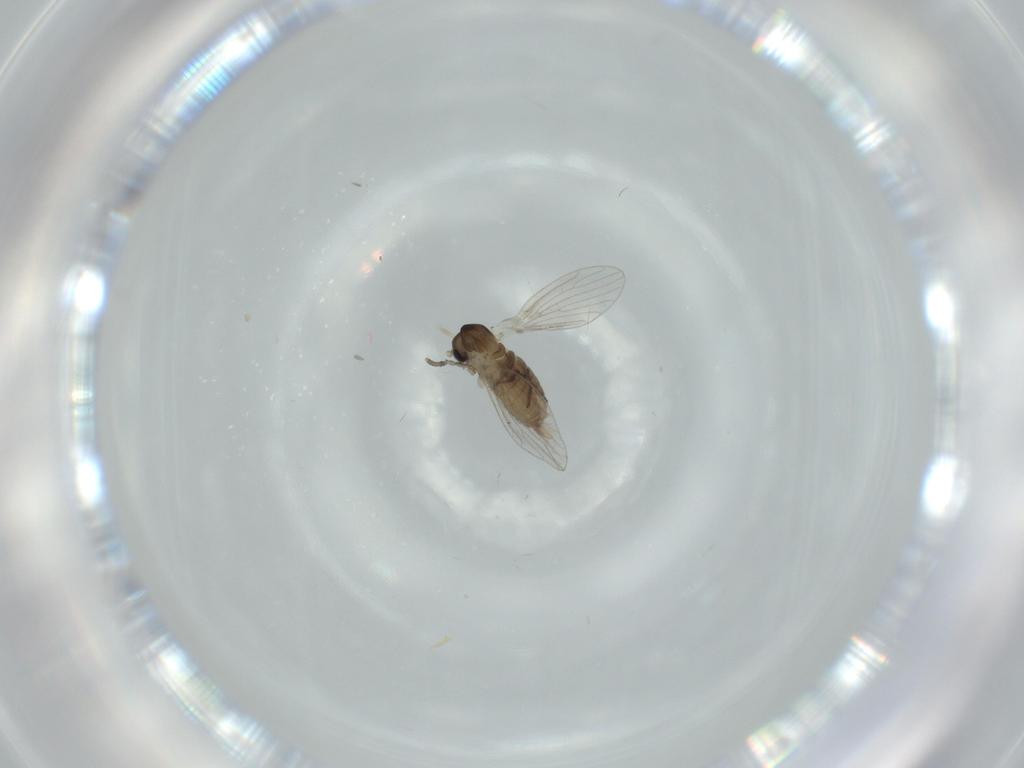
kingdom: Animalia
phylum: Arthropoda
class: Insecta
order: Diptera
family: Psychodidae
